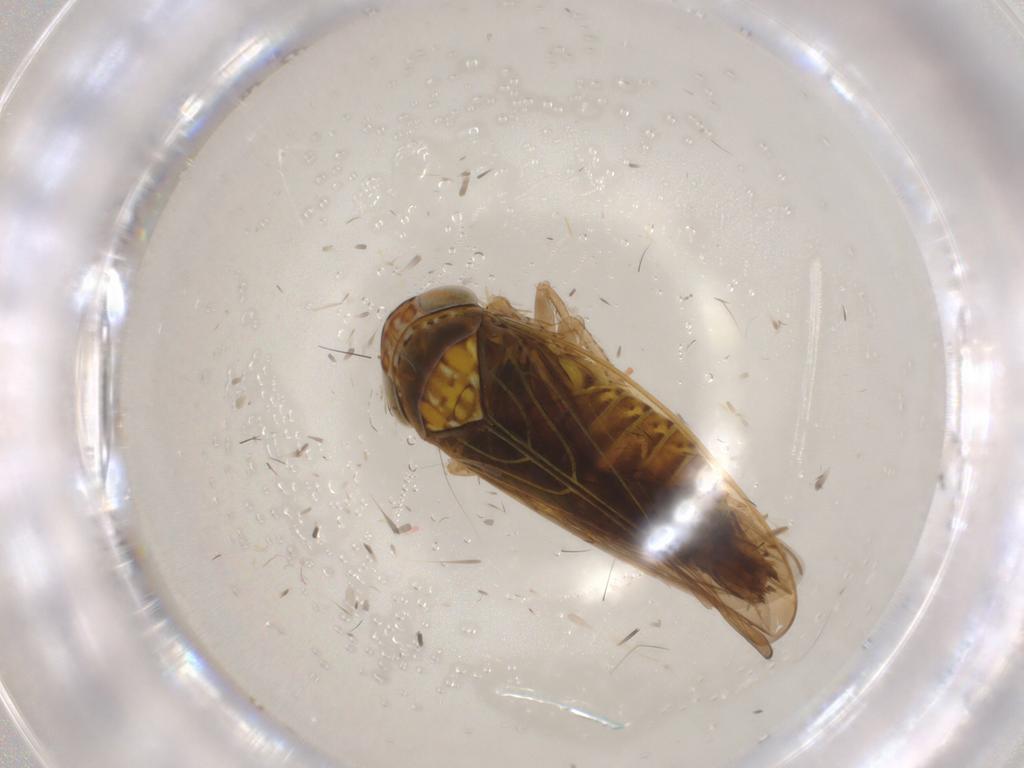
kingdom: Animalia
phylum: Arthropoda
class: Insecta
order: Hemiptera
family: Cicadellidae
